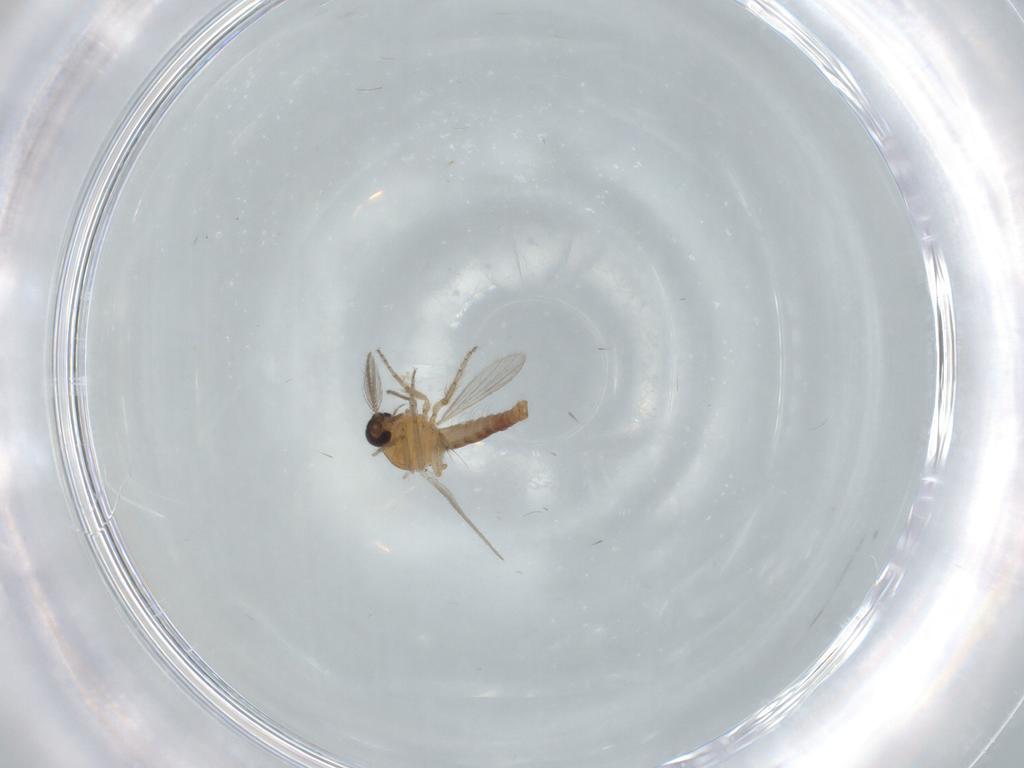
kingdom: Animalia
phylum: Arthropoda
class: Insecta
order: Diptera
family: Ceratopogonidae
